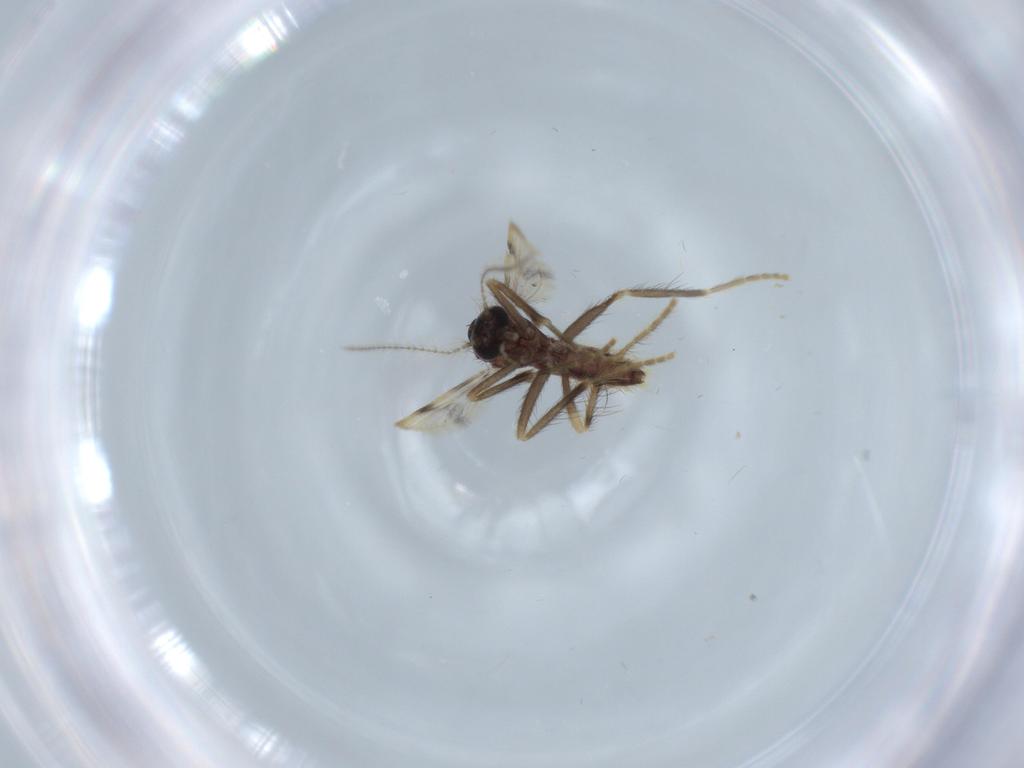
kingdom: Animalia
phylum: Arthropoda
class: Insecta
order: Diptera
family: Corethrellidae
